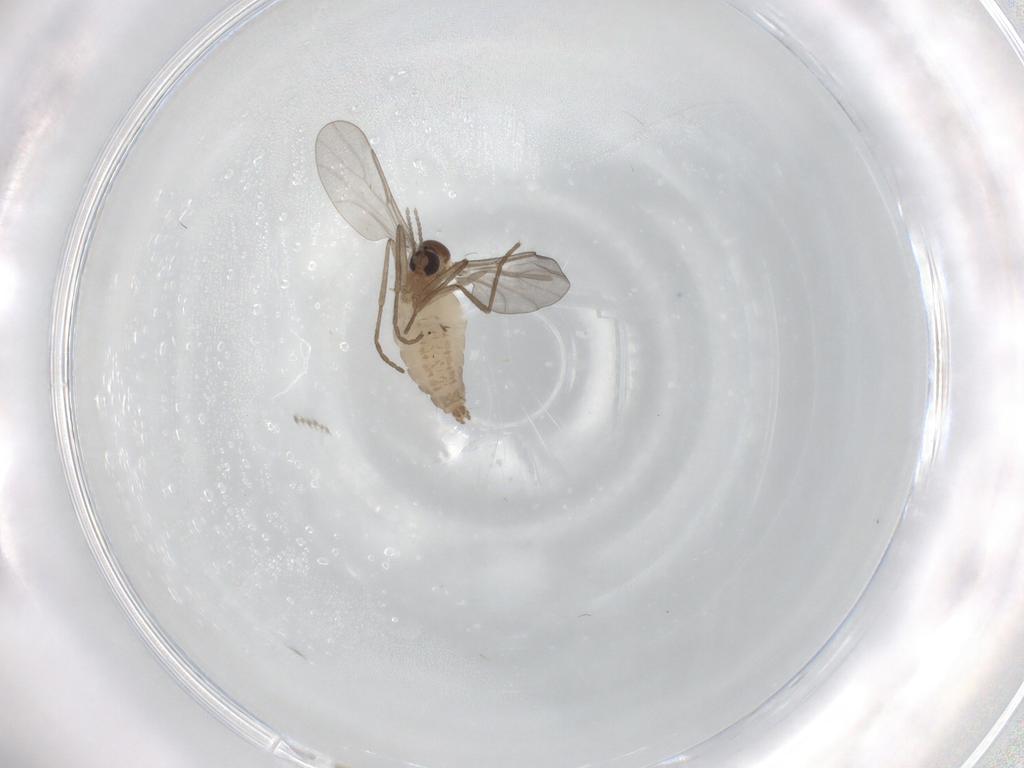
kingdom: Animalia
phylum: Arthropoda
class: Insecta
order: Diptera
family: Cecidomyiidae
